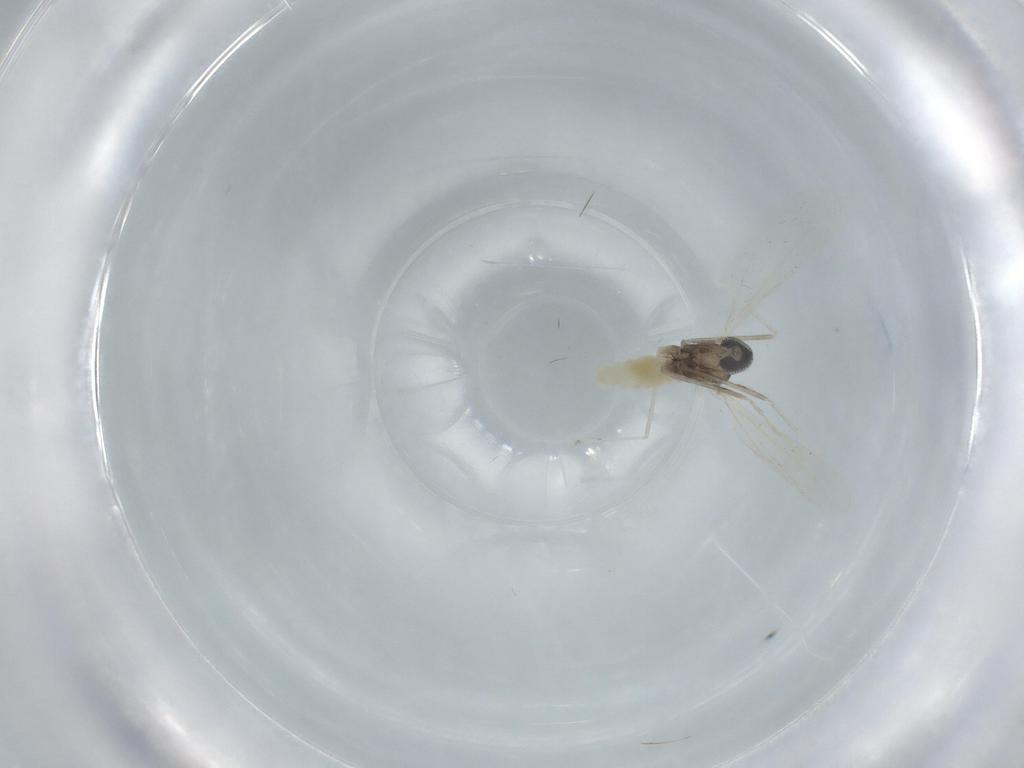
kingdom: Animalia
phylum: Arthropoda
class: Insecta
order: Diptera
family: Cecidomyiidae
